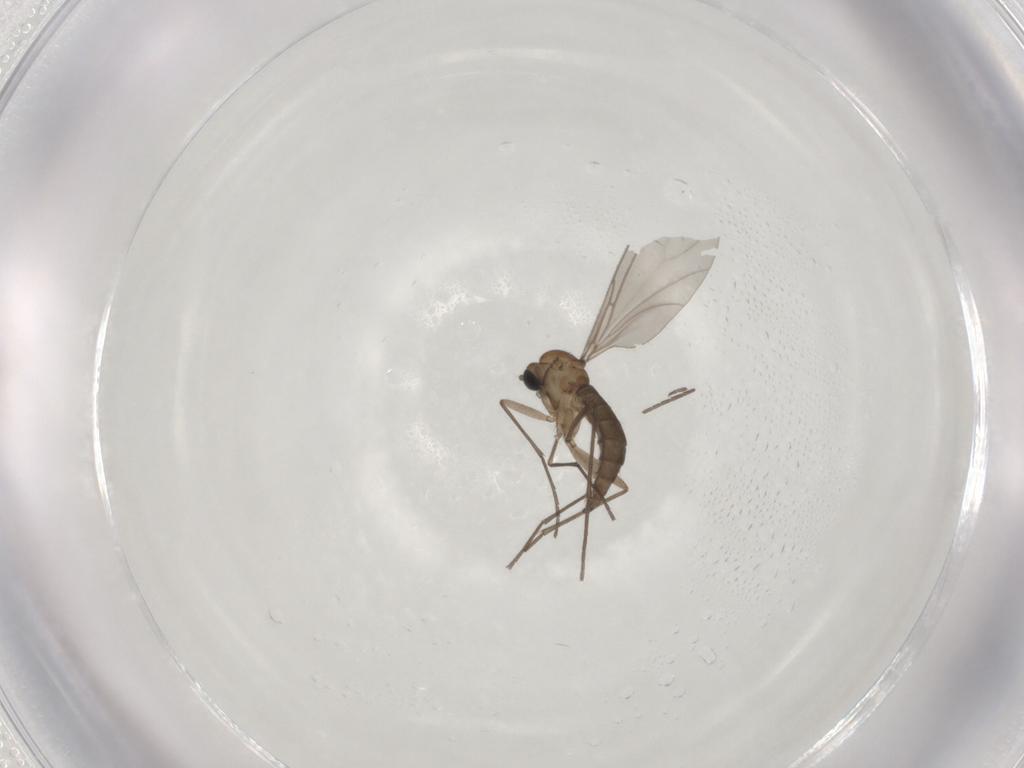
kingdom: Animalia
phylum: Arthropoda
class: Insecta
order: Diptera
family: Sciaridae
